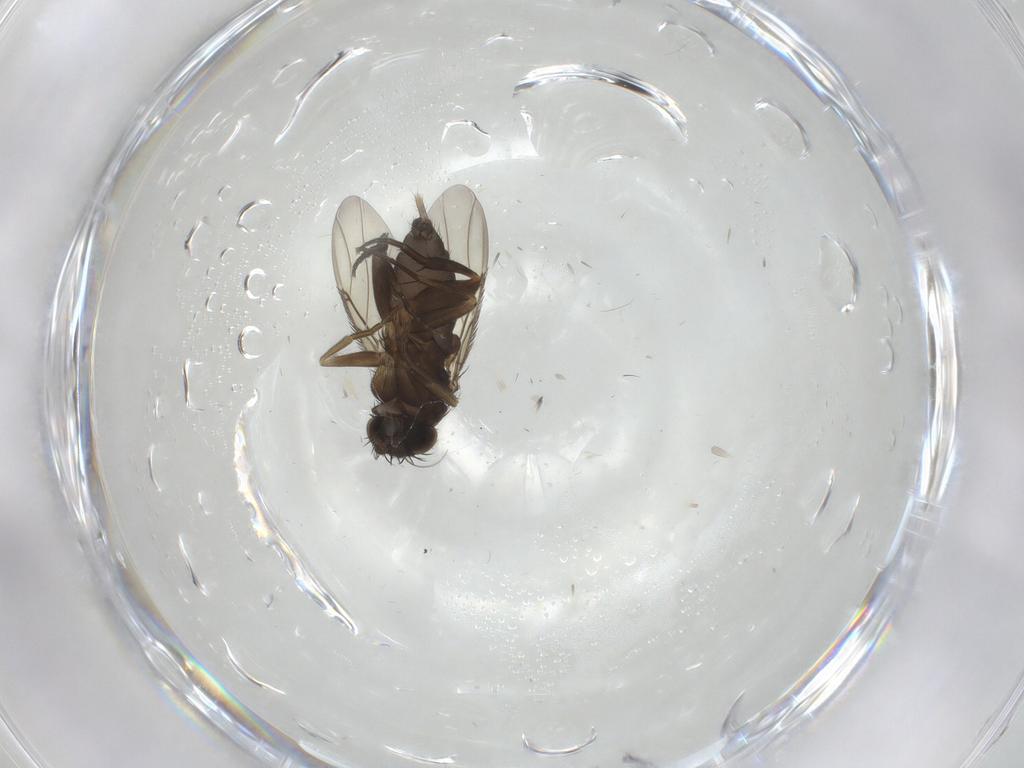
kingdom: Animalia
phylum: Arthropoda
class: Insecta
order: Diptera
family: Phoridae
